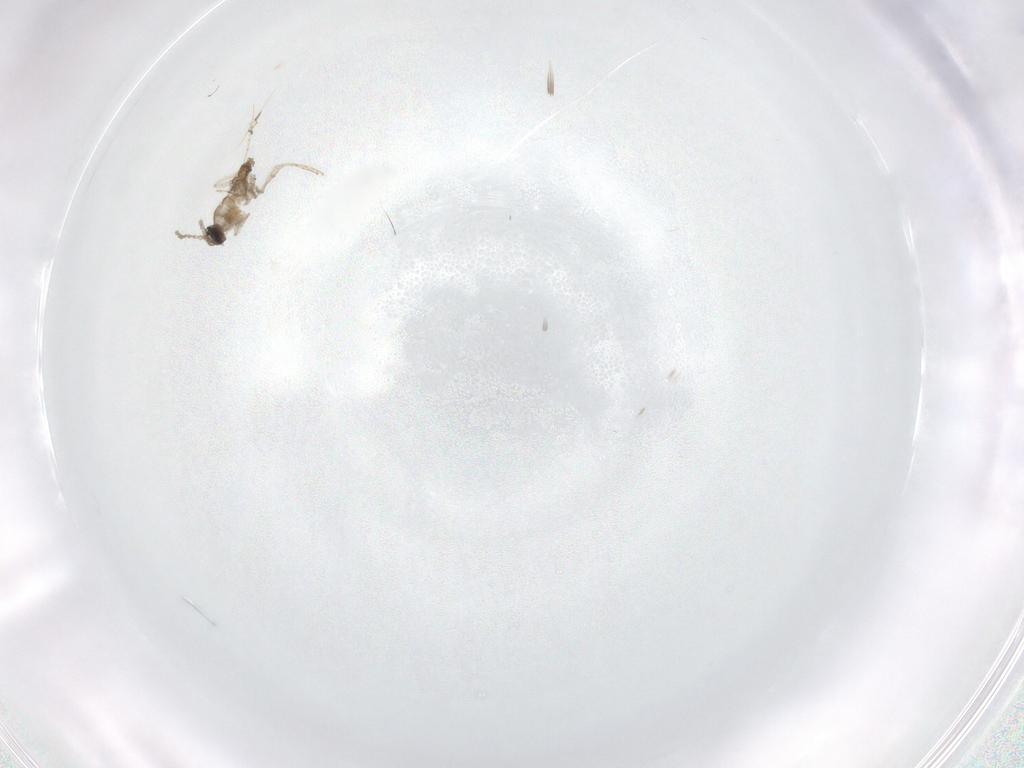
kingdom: Animalia
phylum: Arthropoda
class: Insecta
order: Diptera
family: Cecidomyiidae
